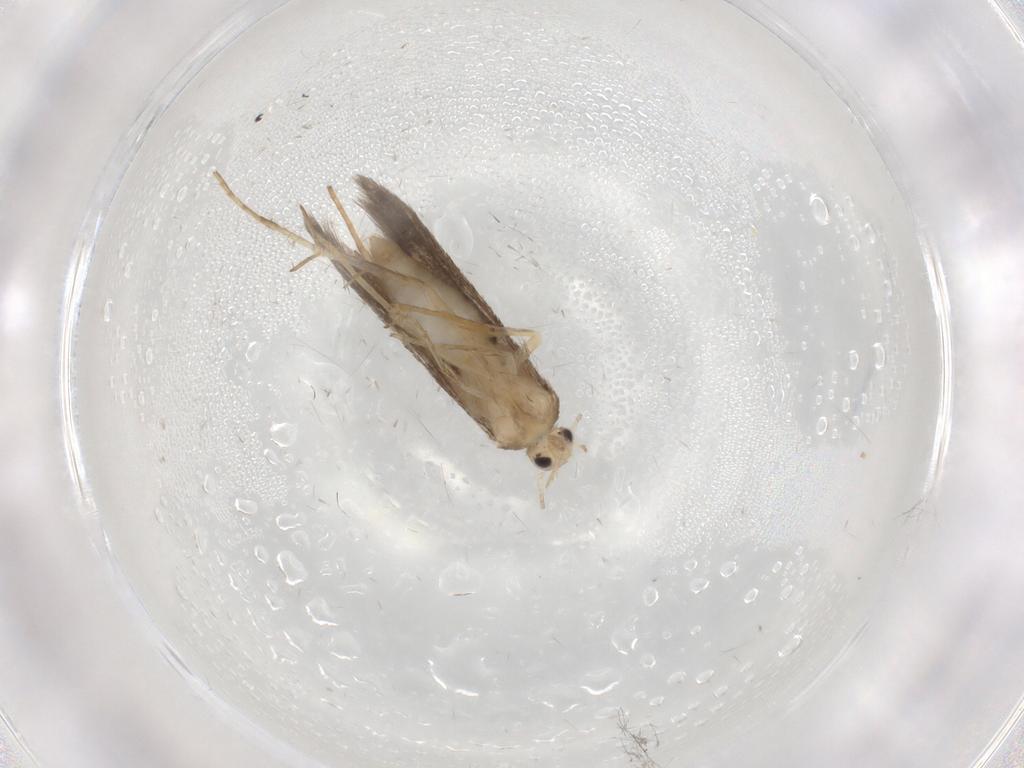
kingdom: Animalia
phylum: Arthropoda
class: Insecta
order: Lepidoptera
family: Schreckensteiniidae
